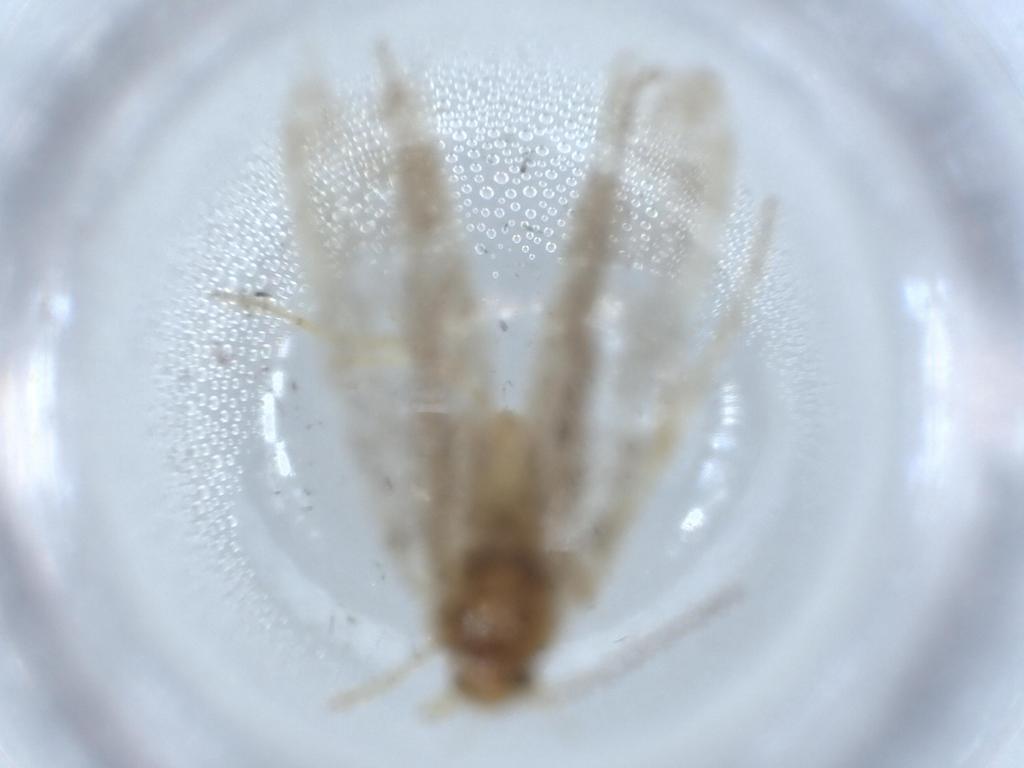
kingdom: Animalia
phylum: Arthropoda
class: Insecta
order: Lepidoptera
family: Argyresthiidae
